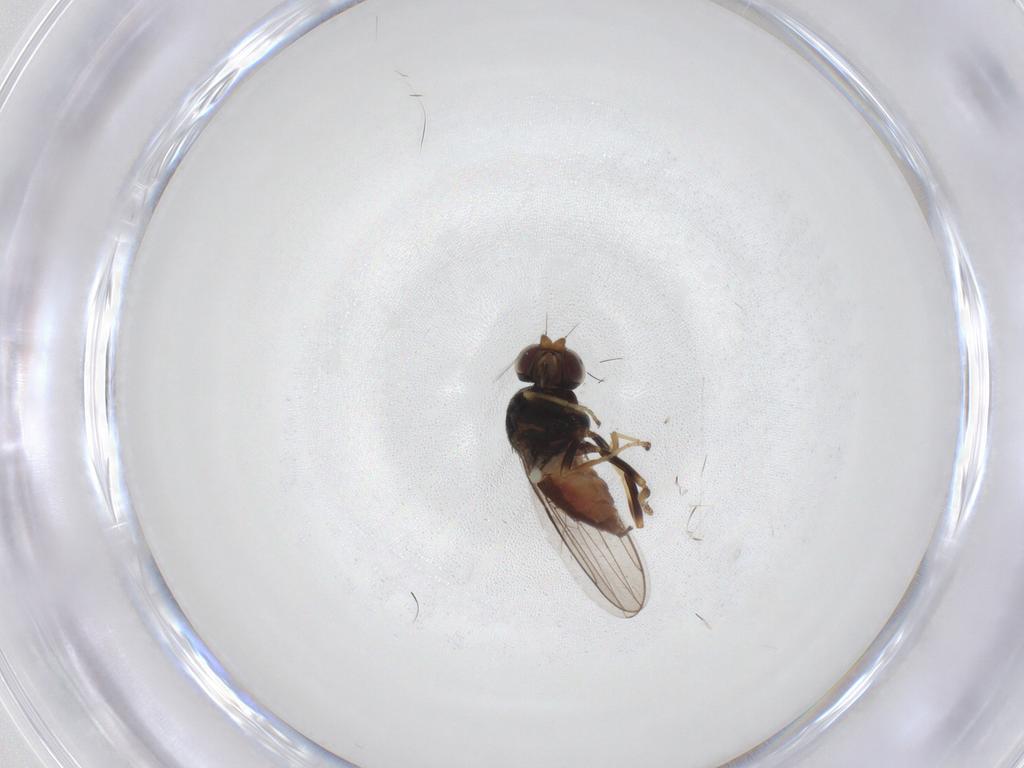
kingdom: Animalia
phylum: Arthropoda
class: Insecta
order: Diptera
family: Chloropidae
